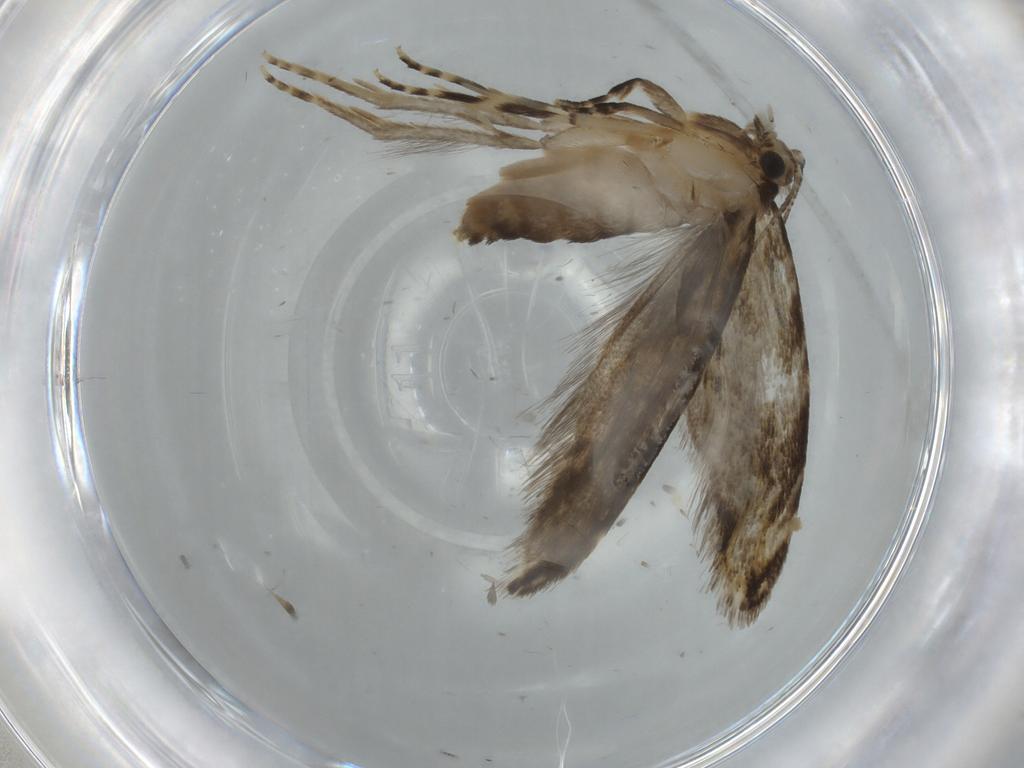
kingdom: Animalia
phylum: Arthropoda
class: Insecta
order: Lepidoptera
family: Tineidae
